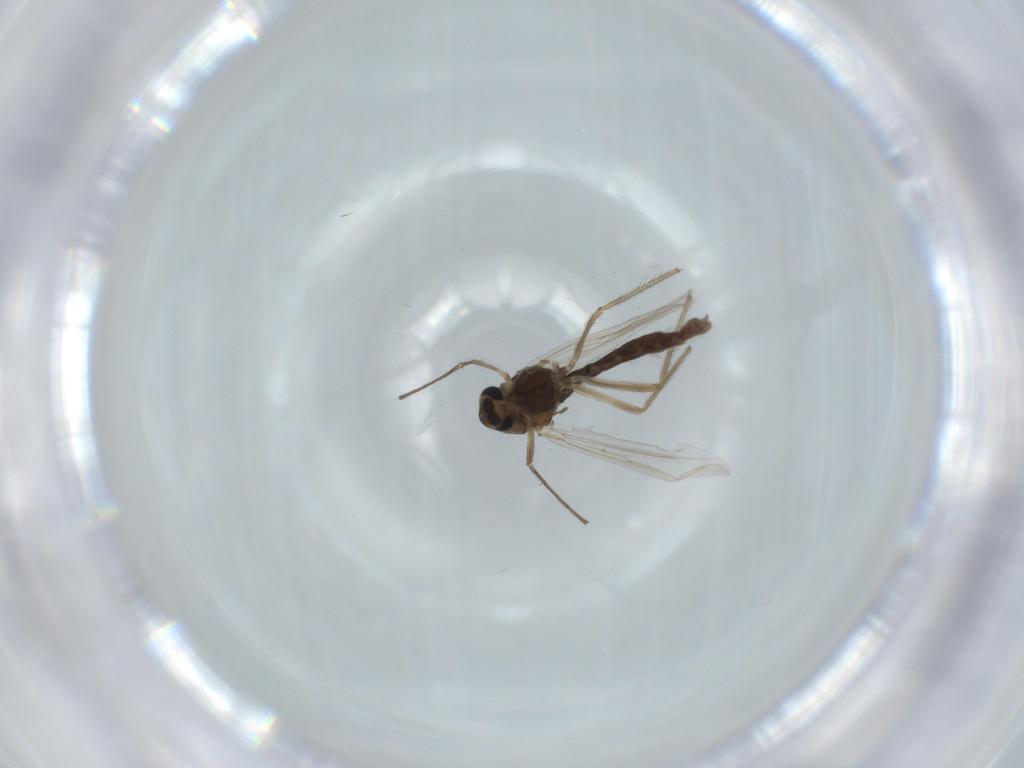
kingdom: Animalia
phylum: Arthropoda
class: Insecta
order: Diptera
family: Chironomidae
